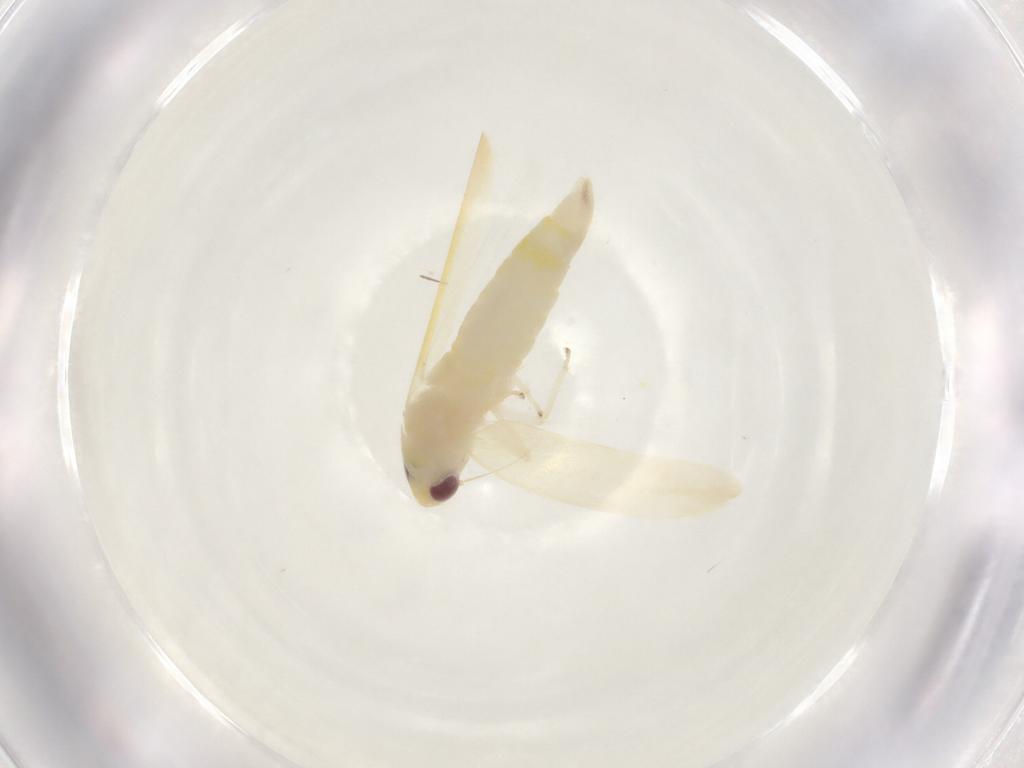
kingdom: Animalia
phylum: Arthropoda
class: Insecta
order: Hemiptera
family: Cicadellidae
